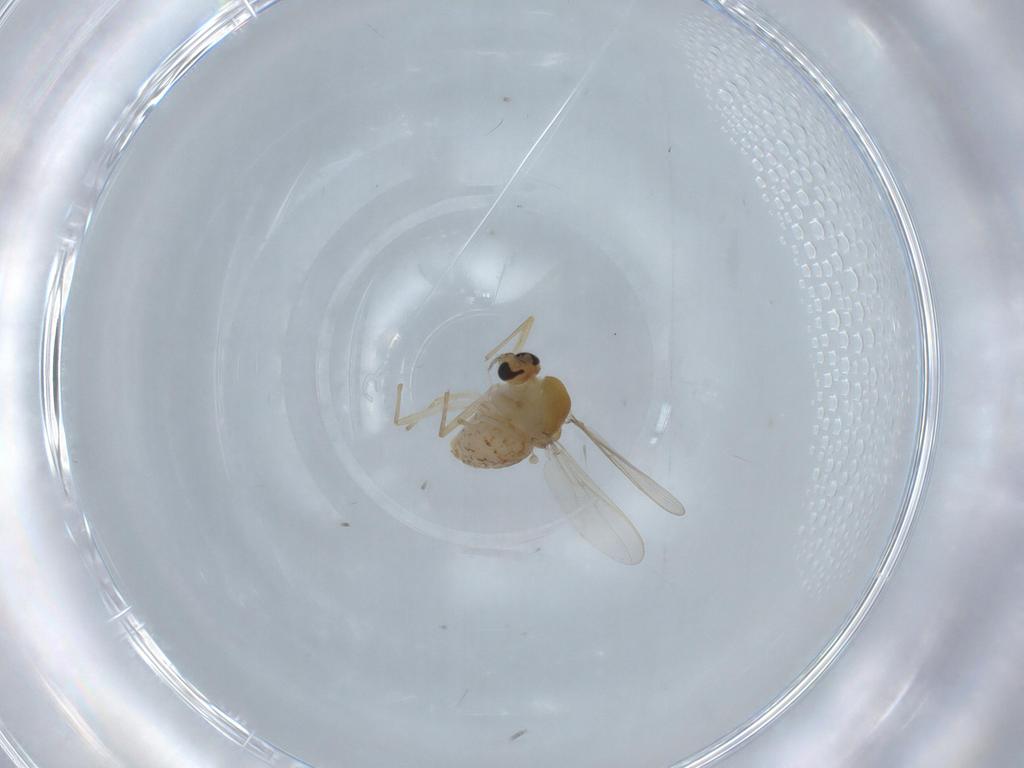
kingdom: Animalia
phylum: Arthropoda
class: Insecta
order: Diptera
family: Chironomidae
